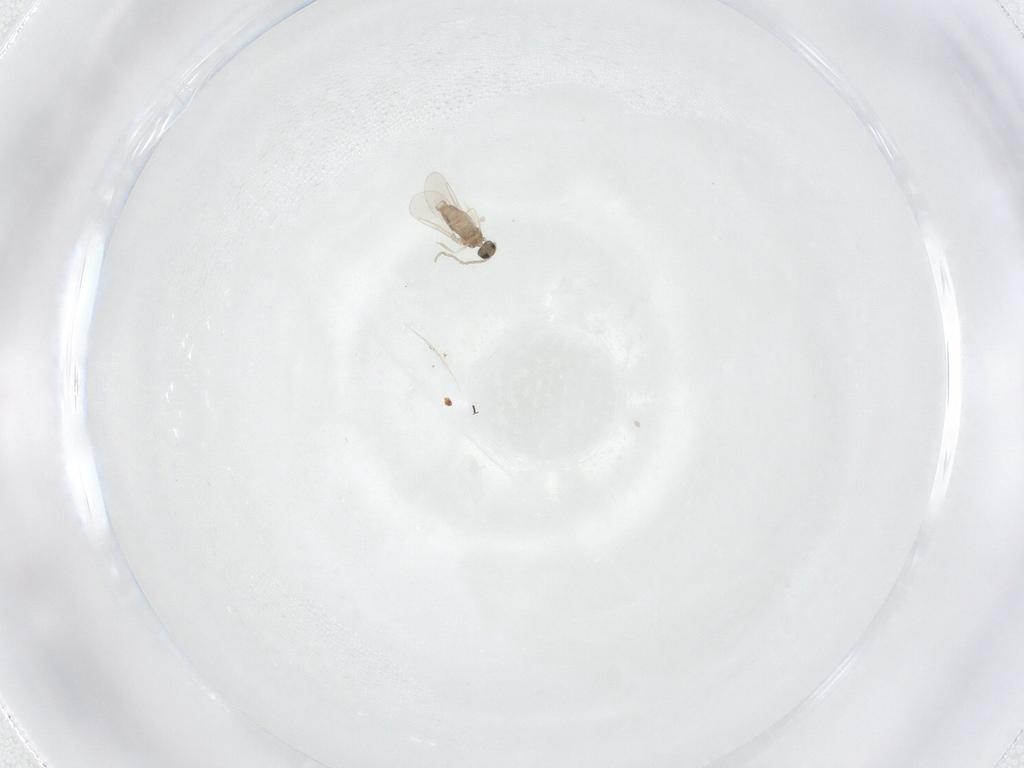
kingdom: Animalia
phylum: Arthropoda
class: Insecta
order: Diptera
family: Cecidomyiidae
